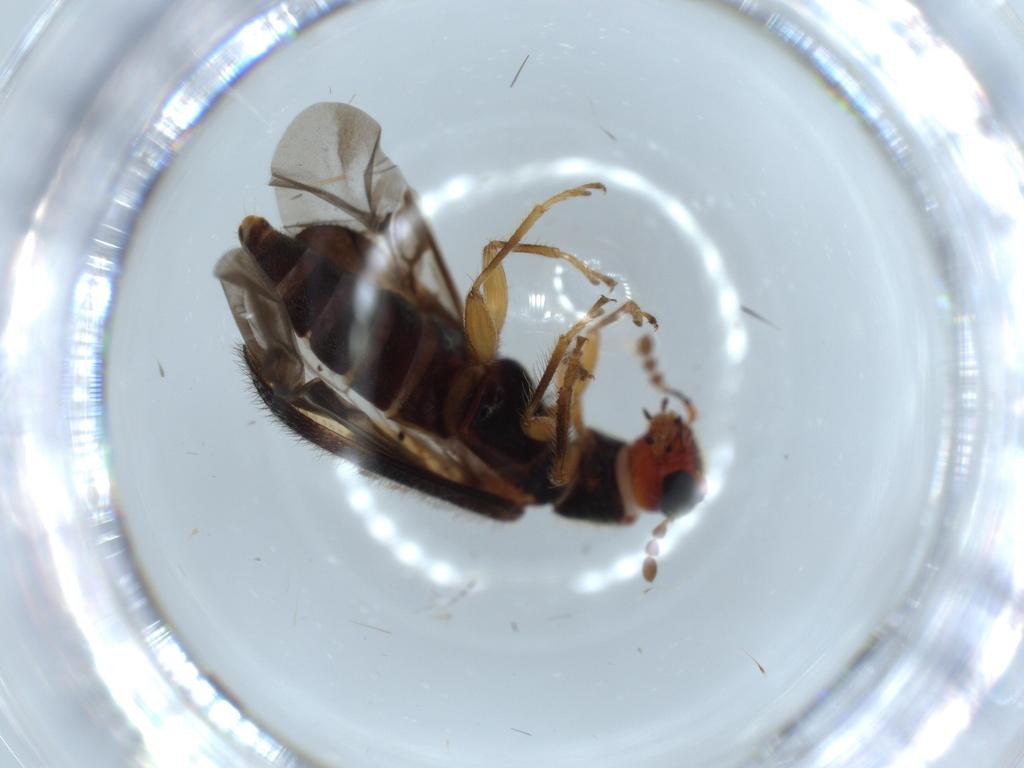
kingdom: Animalia
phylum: Arthropoda
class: Insecta
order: Coleoptera
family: Cleridae
